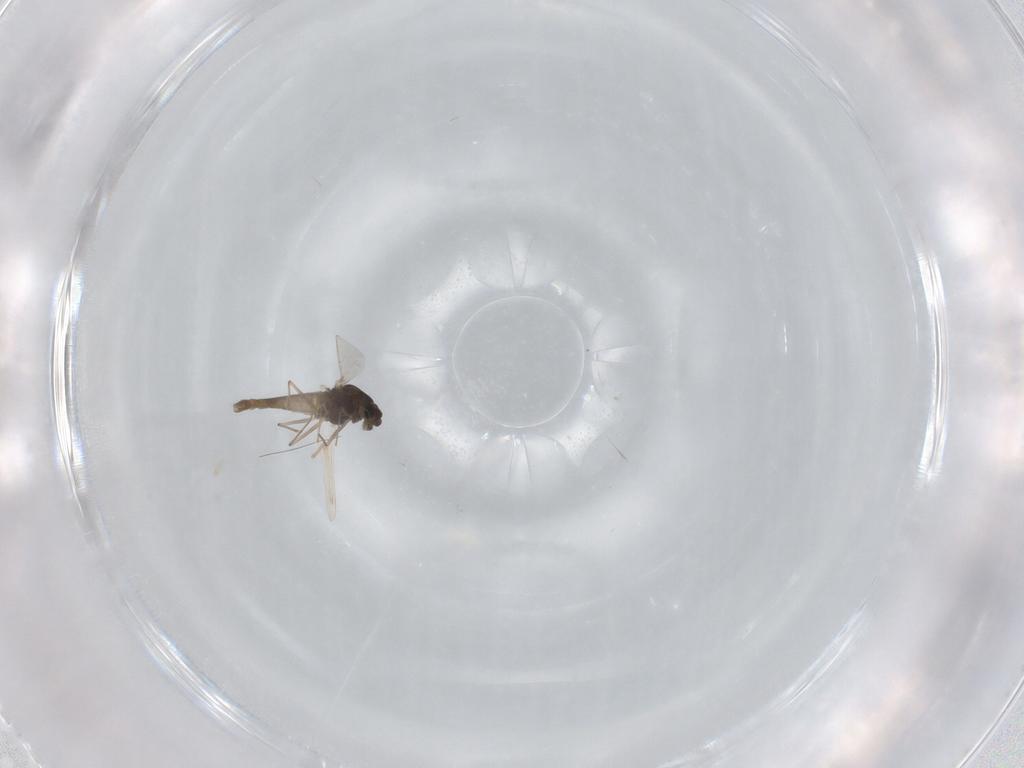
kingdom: Animalia
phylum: Arthropoda
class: Insecta
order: Diptera
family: Chironomidae
